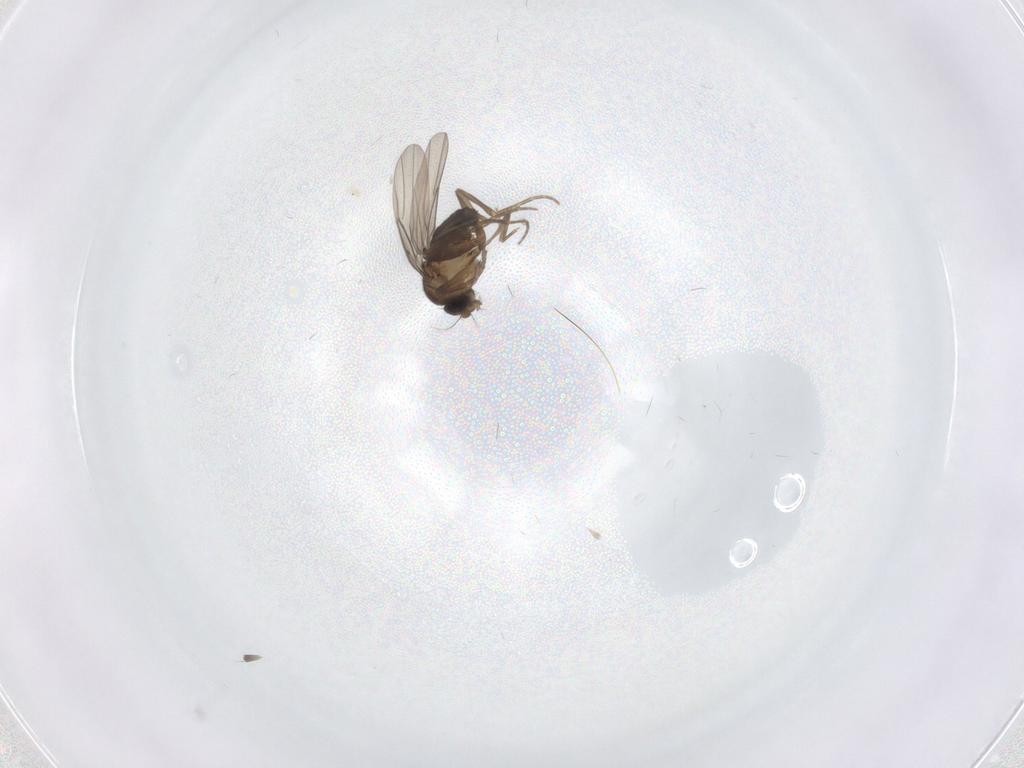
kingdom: Animalia
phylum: Arthropoda
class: Insecta
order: Diptera
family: Phoridae
